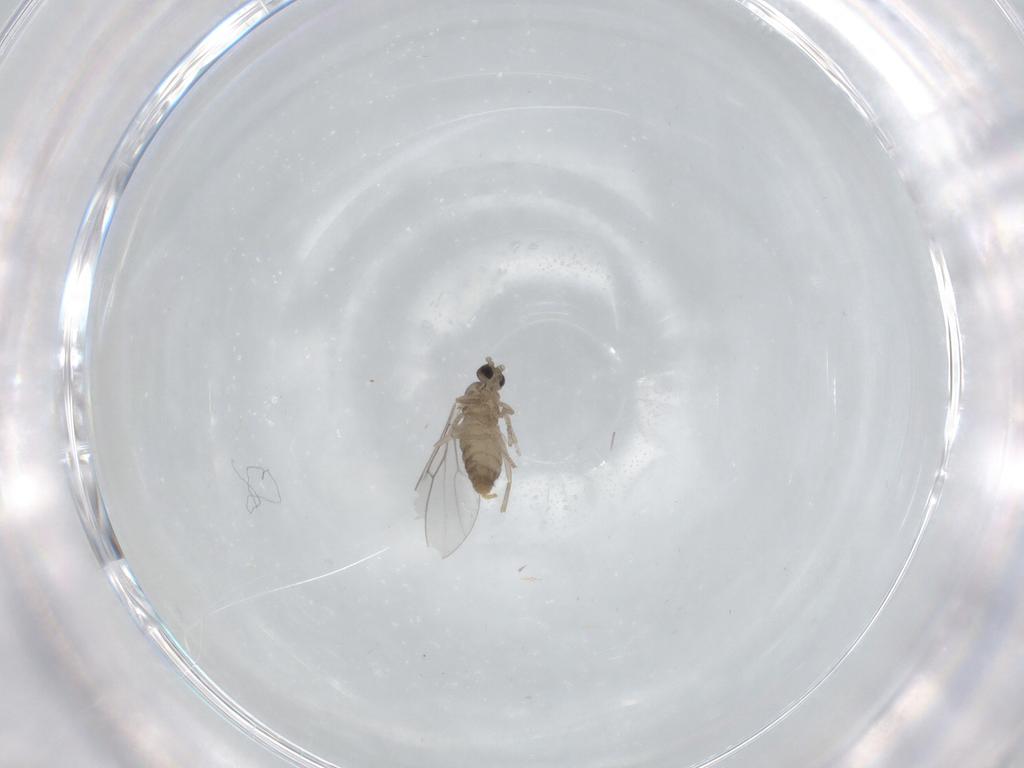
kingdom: Animalia
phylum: Arthropoda
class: Insecta
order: Diptera
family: Cecidomyiidae
